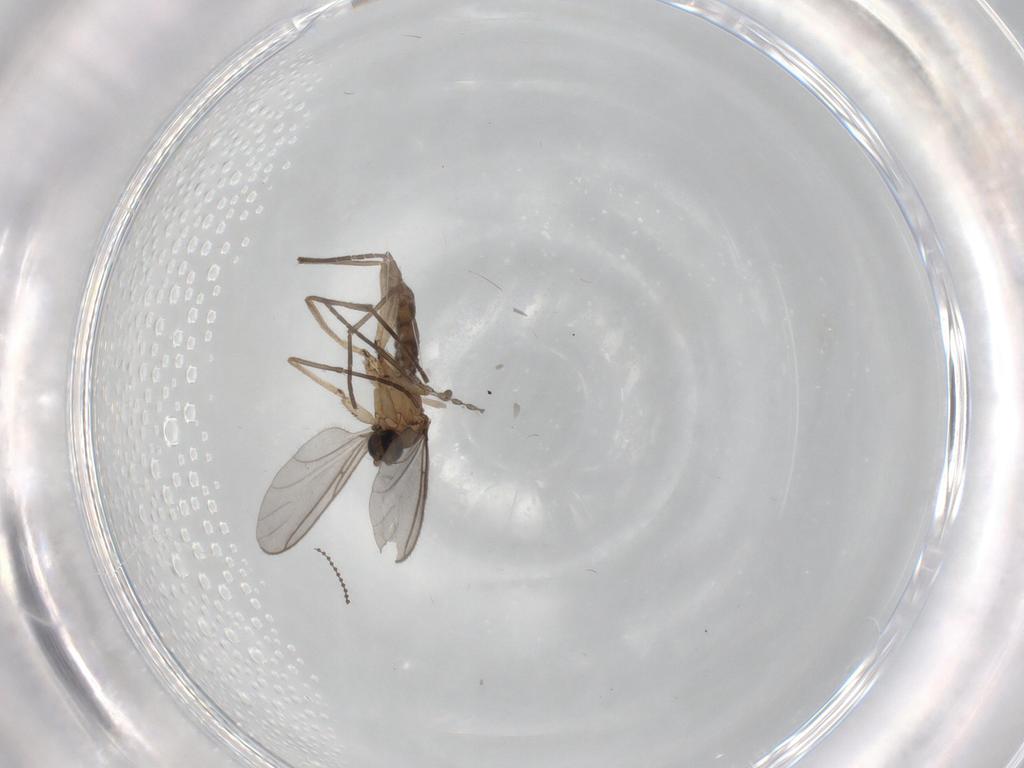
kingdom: Animalia
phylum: Arthropoda
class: Insecta
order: Diptera
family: Sciaridae
